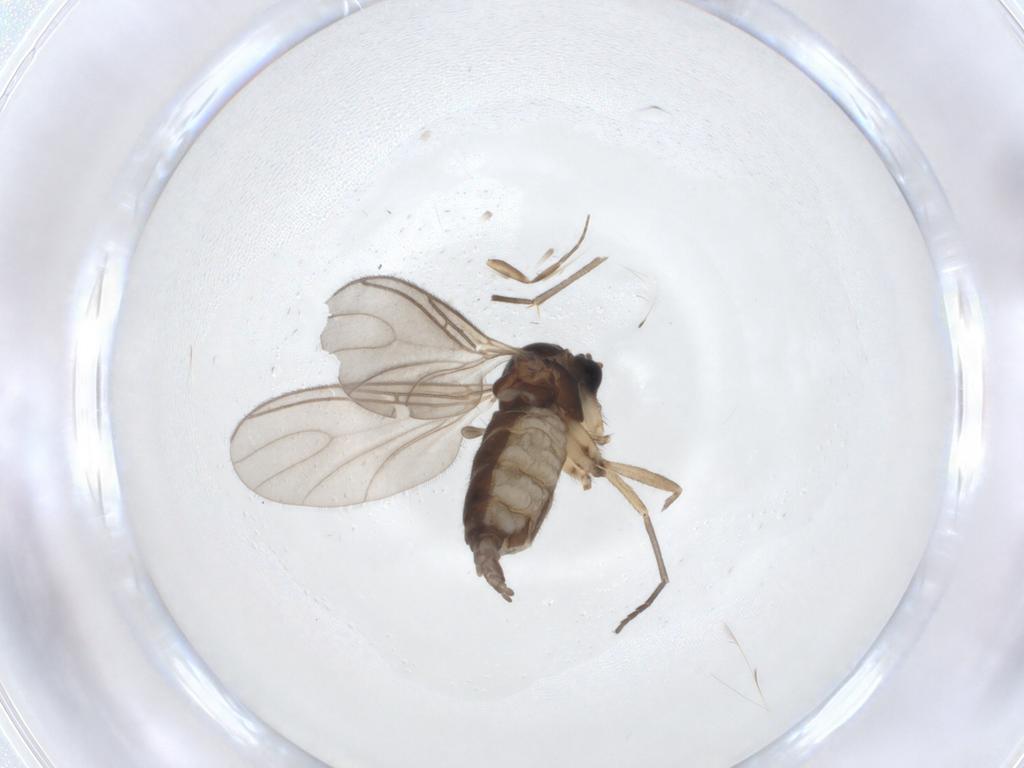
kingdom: Animalia
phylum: Arthropoda
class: Insecta
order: Diptera
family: Sciaridae
